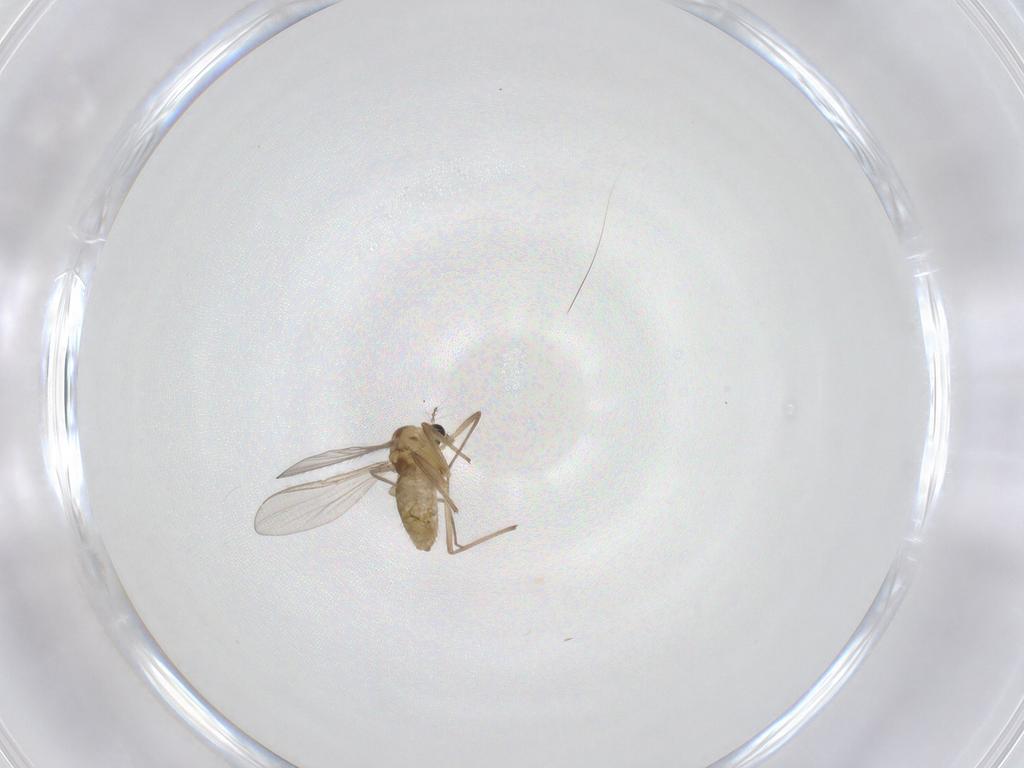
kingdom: Animalia
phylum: Arthropoda
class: Insecta
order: Diptera
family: Chironomidae
